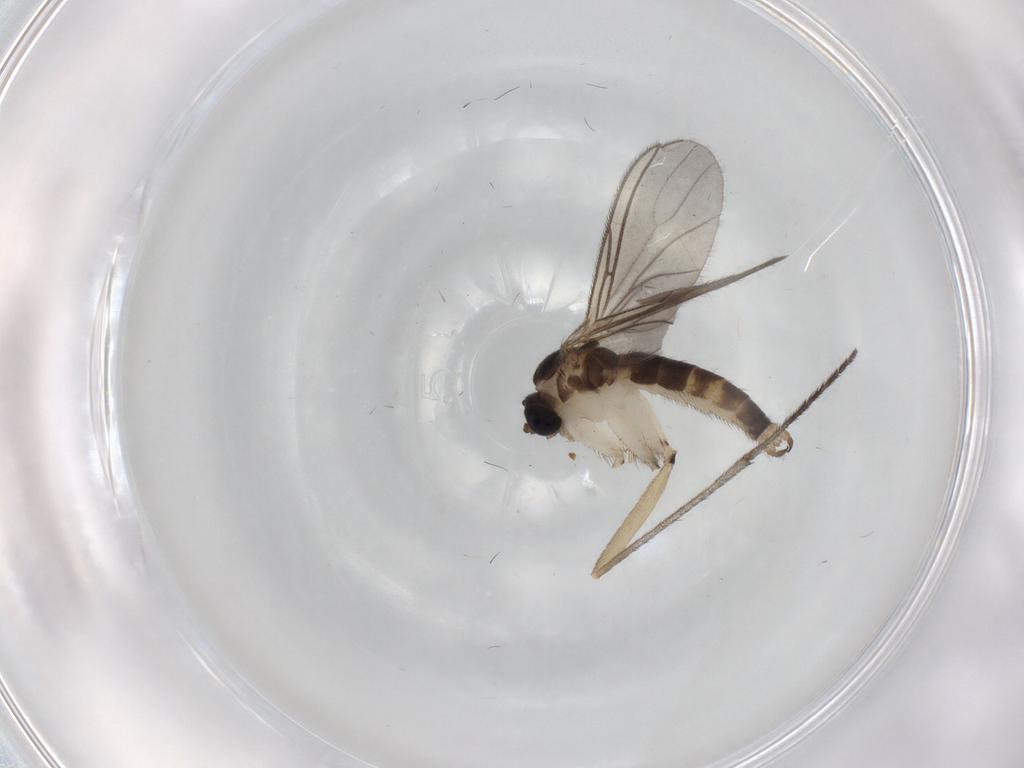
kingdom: Animalia
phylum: Arthropoda
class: Insecta
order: Diptera
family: Sciaridae
